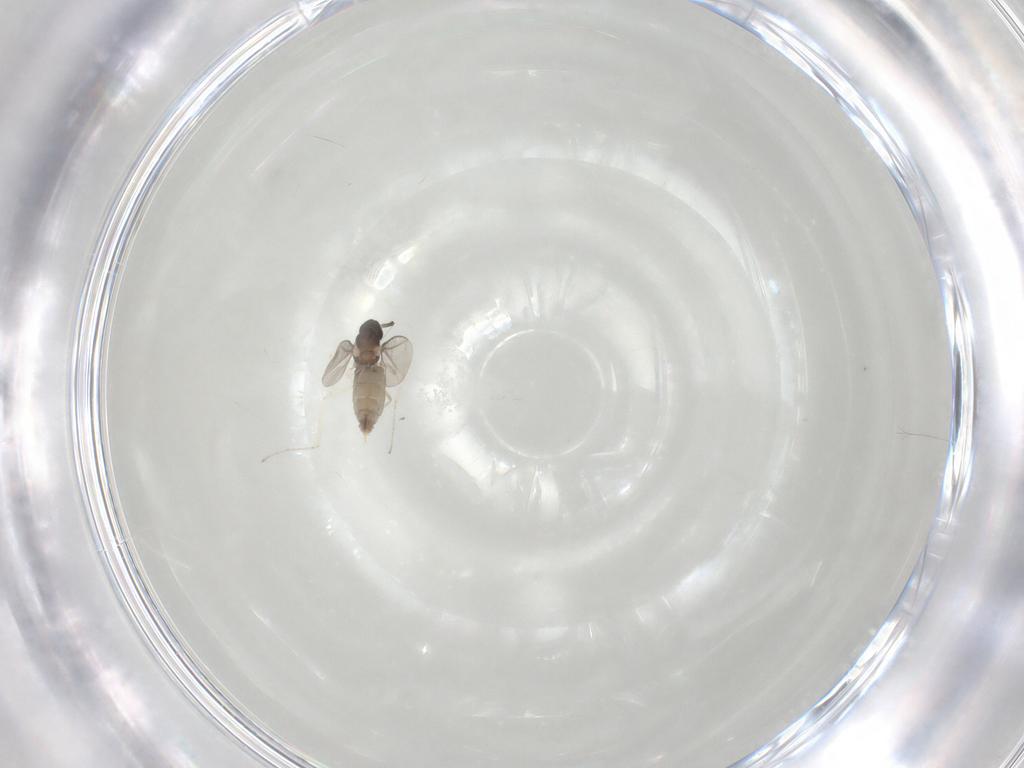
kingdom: Animalia
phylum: Arthropoda
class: Insecta
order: Diptera
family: Cecidomyiidae
